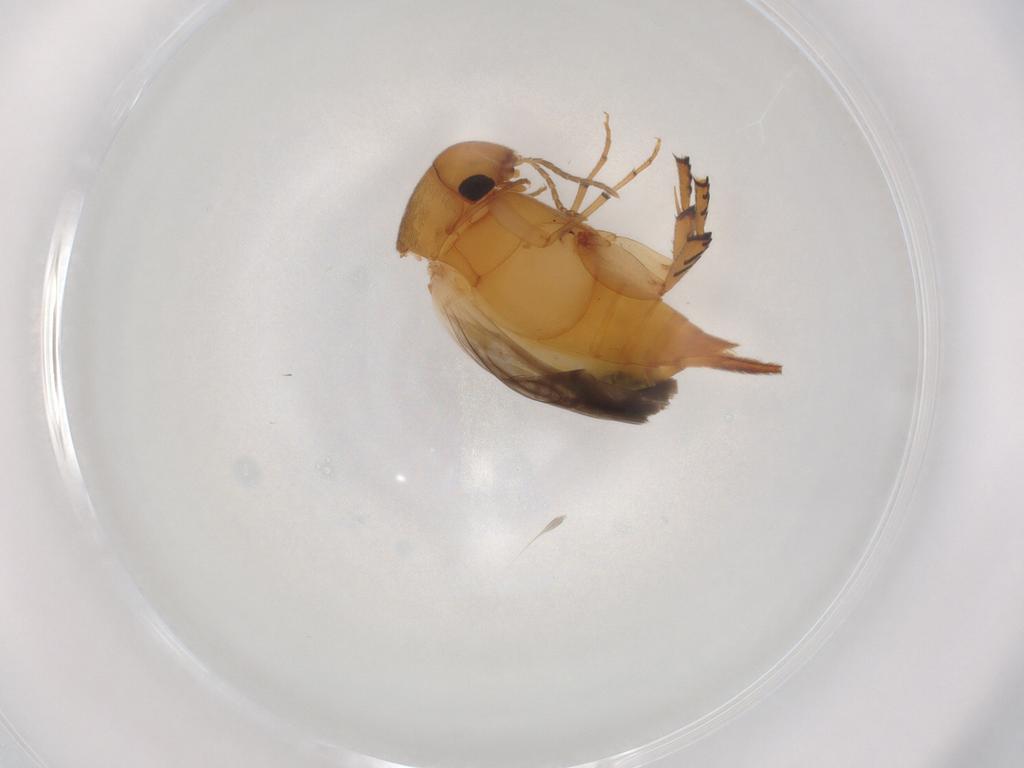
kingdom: Animalia
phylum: Arthropoda
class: Insecta
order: Coleoptera
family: Mordellidae
